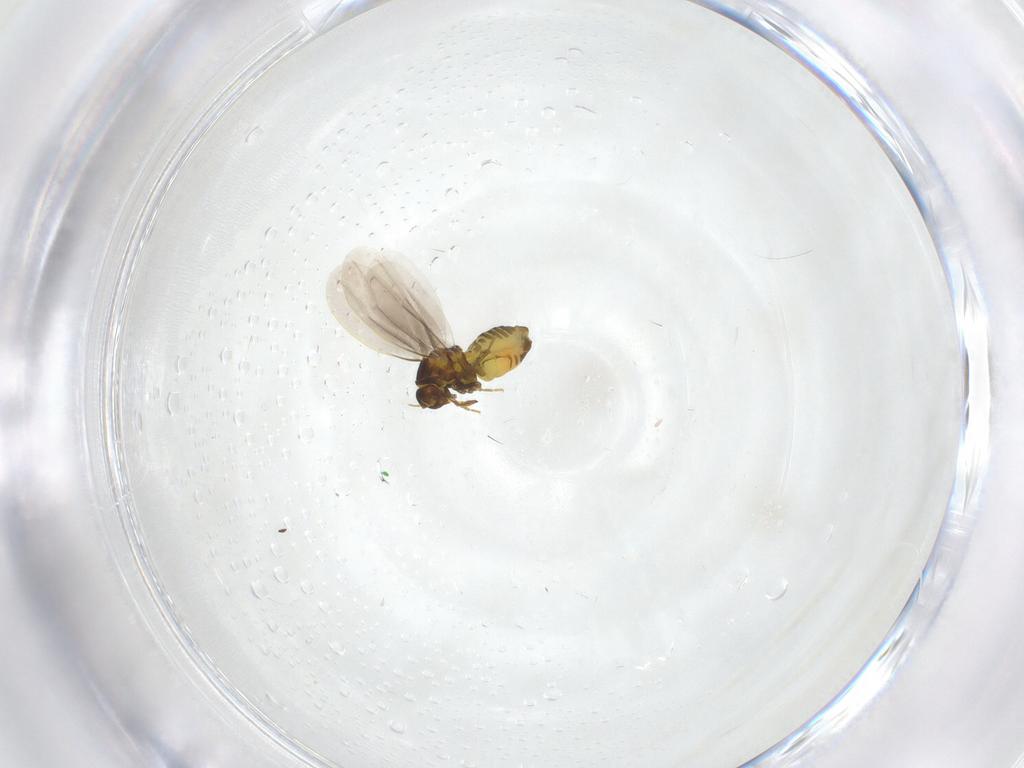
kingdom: Animalia
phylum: Arthropoda
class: Insecta
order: Hemiptera
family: Aleyrodidae
